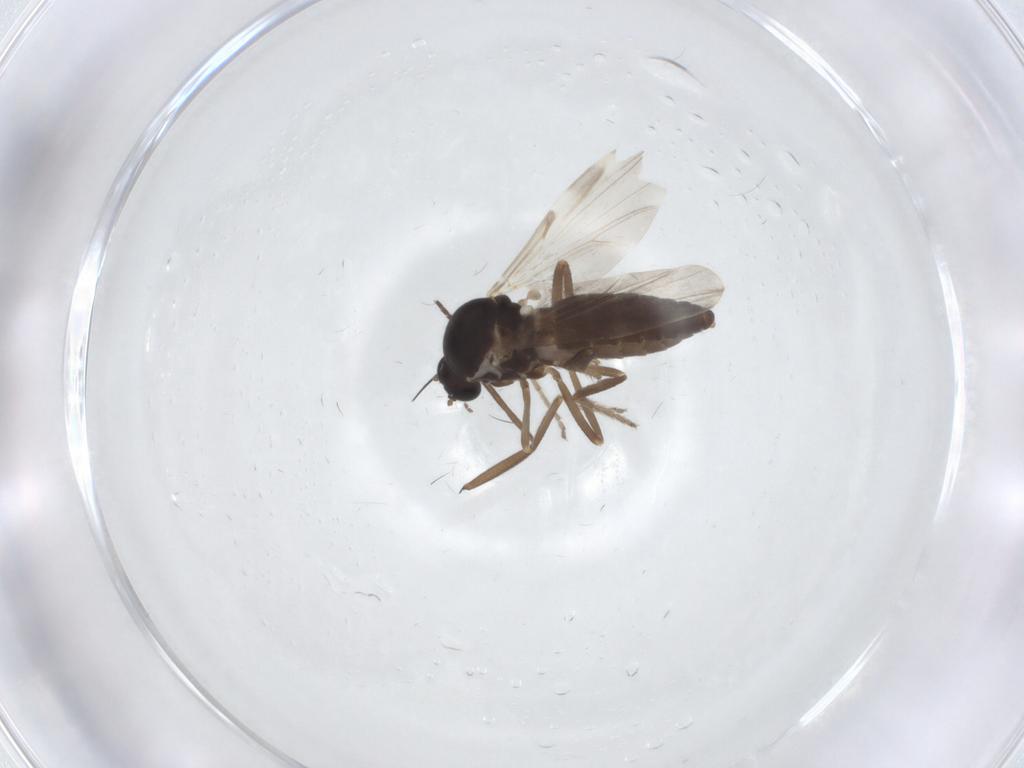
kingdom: Animalia
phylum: Arthropoda
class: Insecta
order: Diptera
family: Ceratopogonidae
